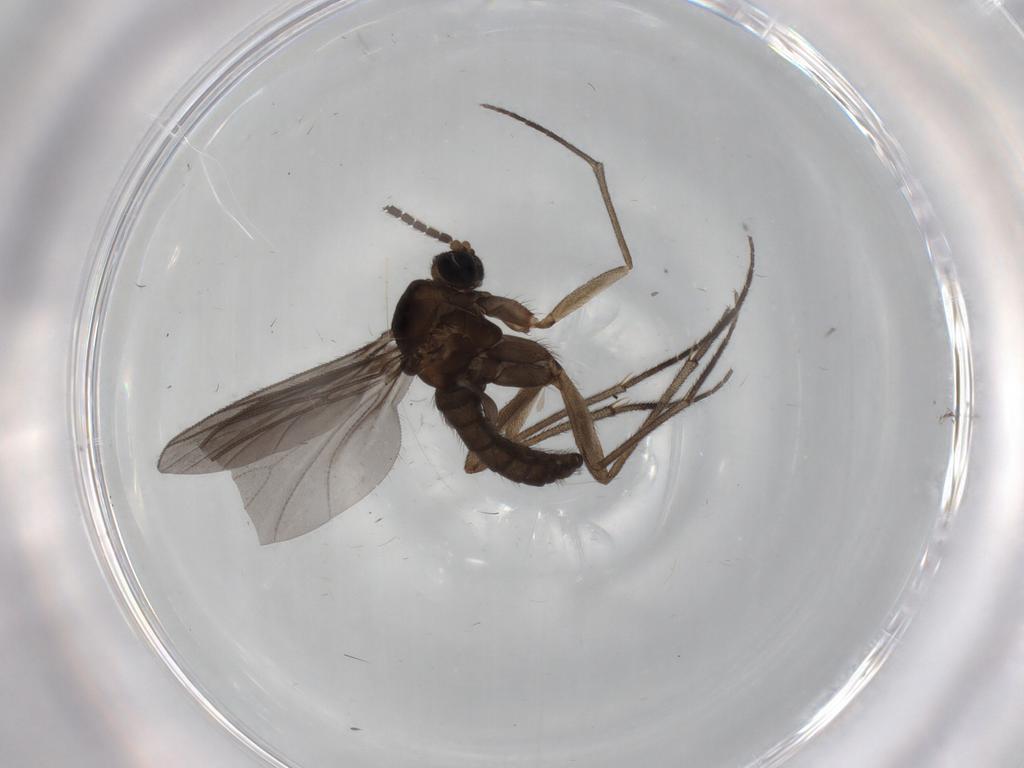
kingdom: Animalia
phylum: Arthropoda
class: Insecta
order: Diptera
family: Sciaridae
